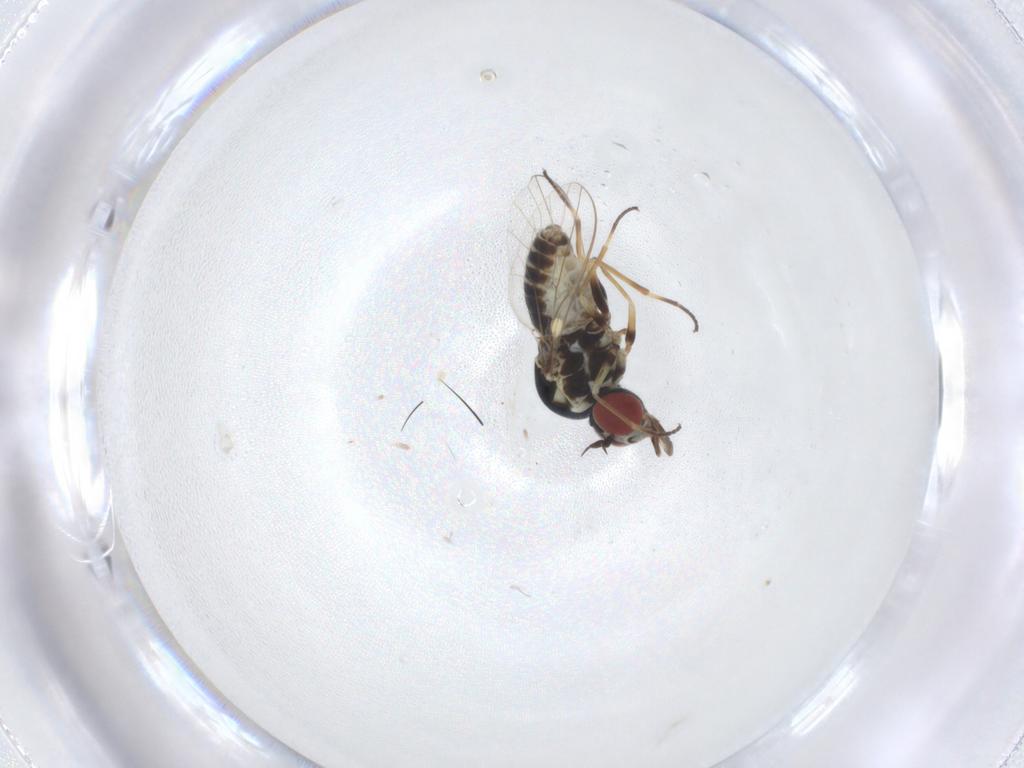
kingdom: Animalia
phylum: Arthropoda
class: Insecta
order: Diptera
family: Bombyliidae
